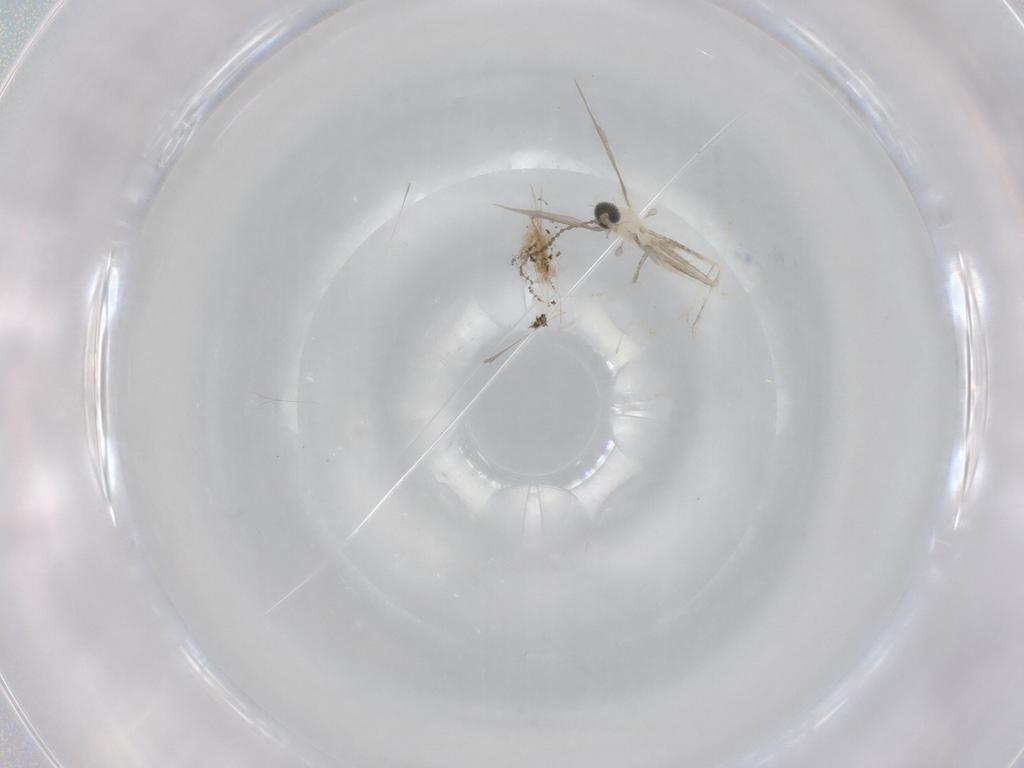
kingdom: Animalia
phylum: Arthropoda
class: Insecta
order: Diptera
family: Cecidomyiidae
